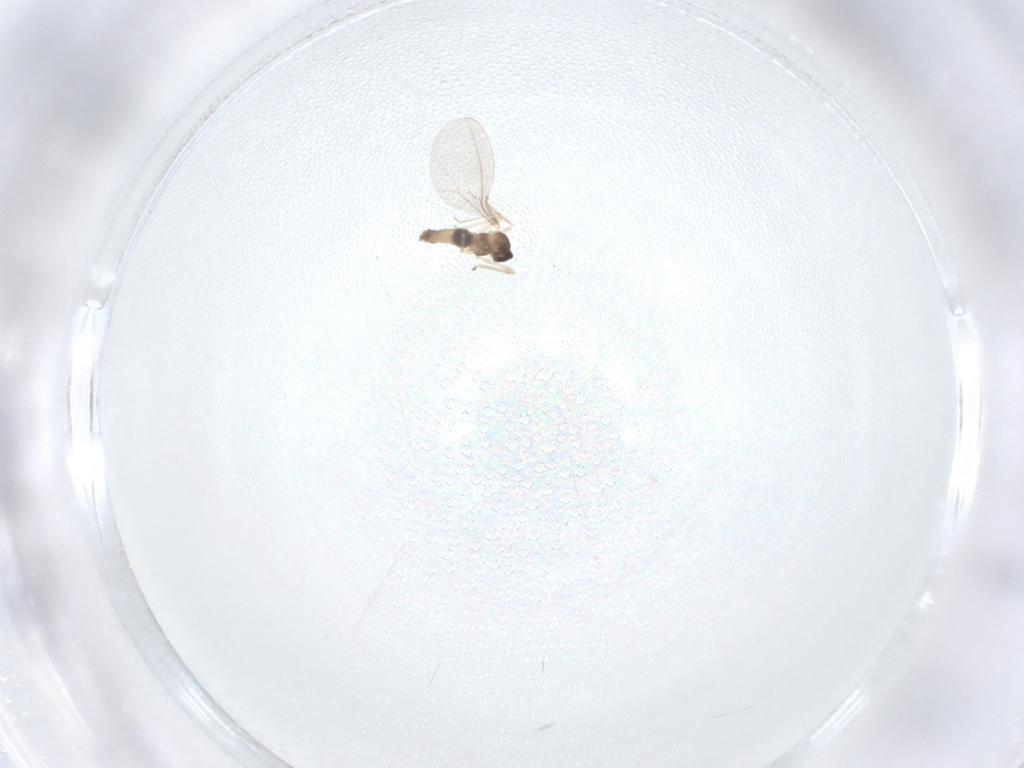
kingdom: Animalia
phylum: Arthropoda
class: Insecta
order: Diptera
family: Cecidomyiidae
